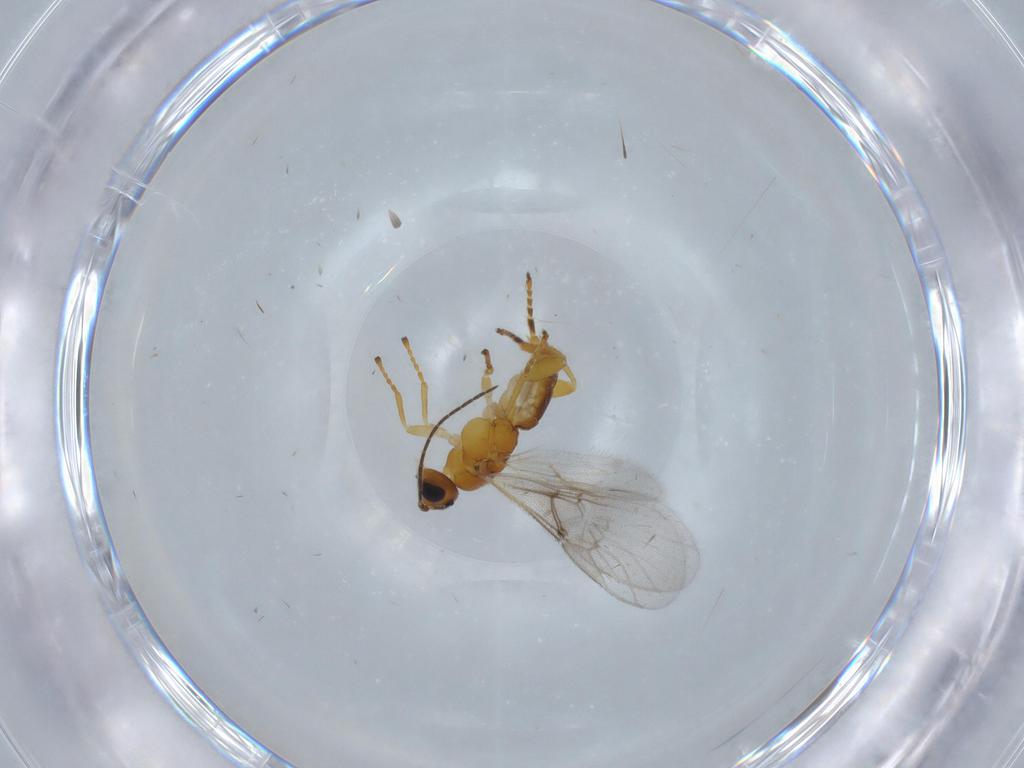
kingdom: Animalia
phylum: Arthropoda
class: Insecta
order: Hymenoptera
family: Braconidae
